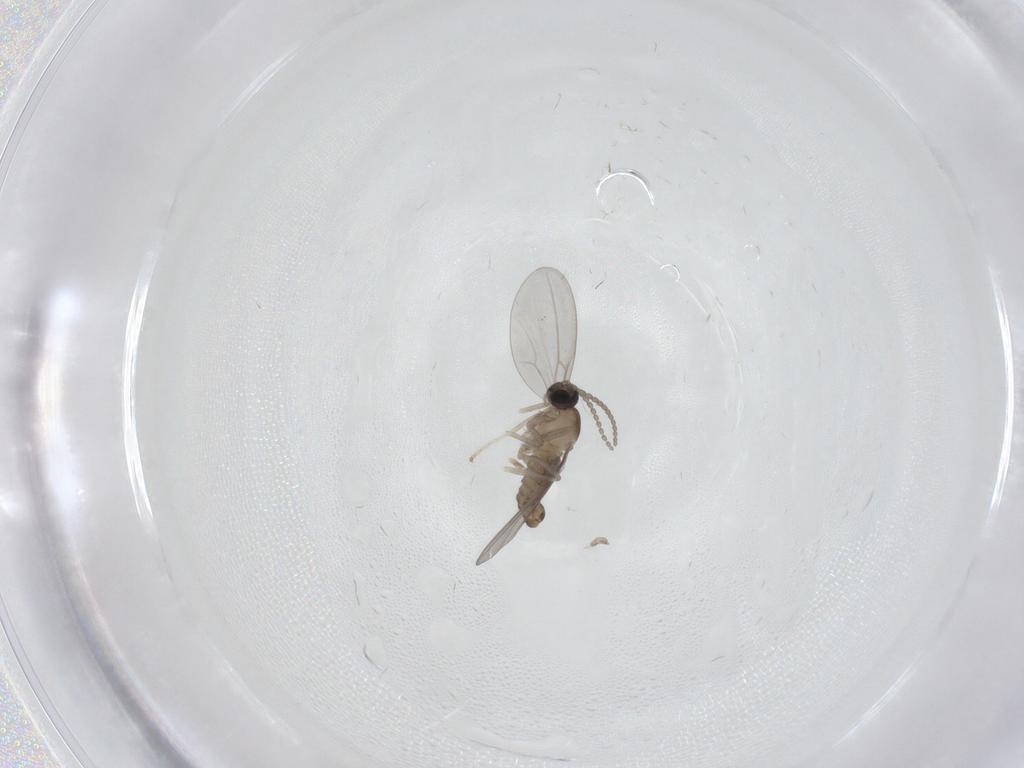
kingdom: Animalia
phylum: Arthropoda
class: Insecta
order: Diptera
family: Cecidomyiidae
